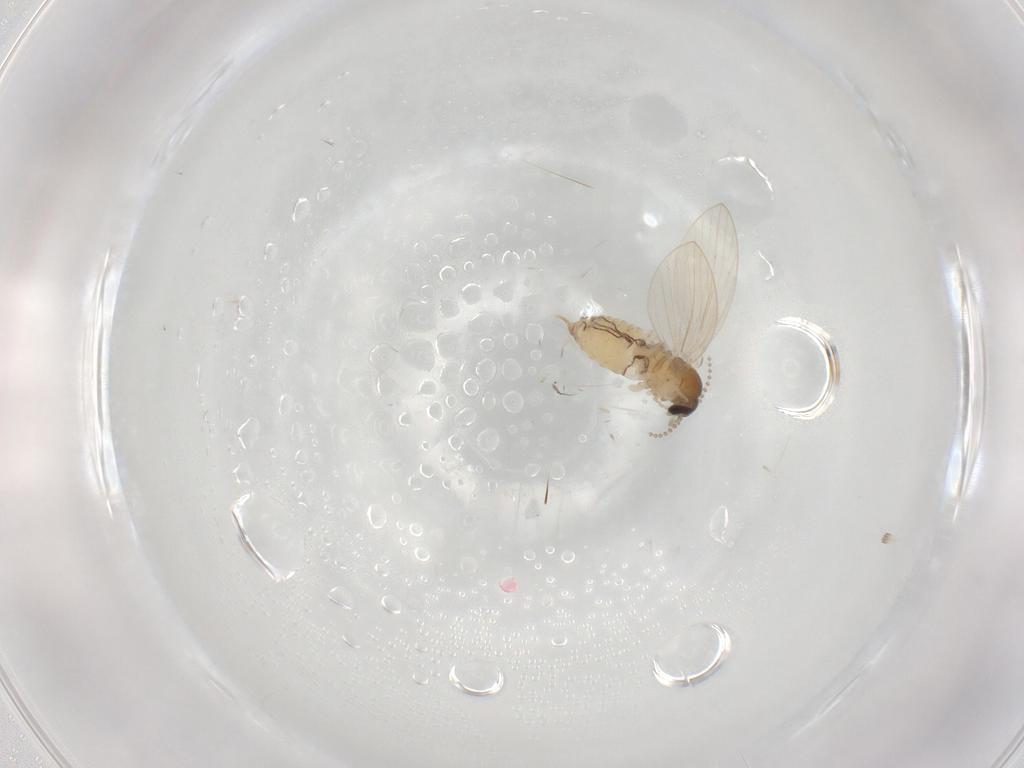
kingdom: Animalia
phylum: Arthropoda
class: Insecta
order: Diptera
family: Psychodidae
